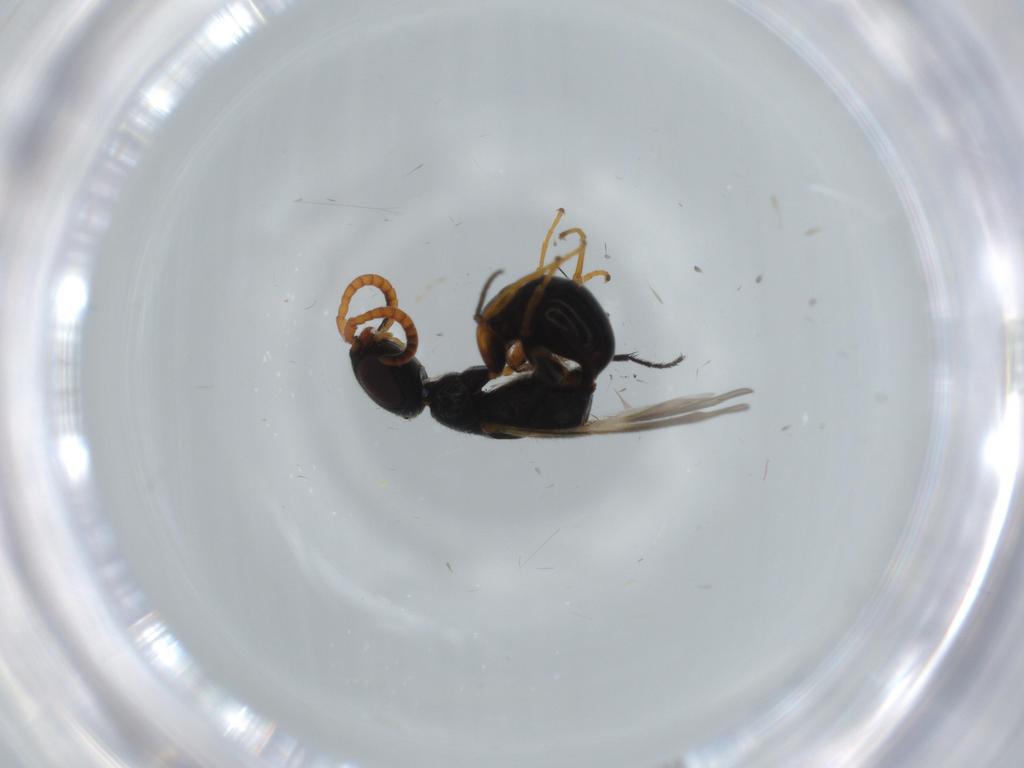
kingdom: Animalia
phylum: Arthropoda
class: Insecta
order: Hymenoptera
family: Bethylidae
